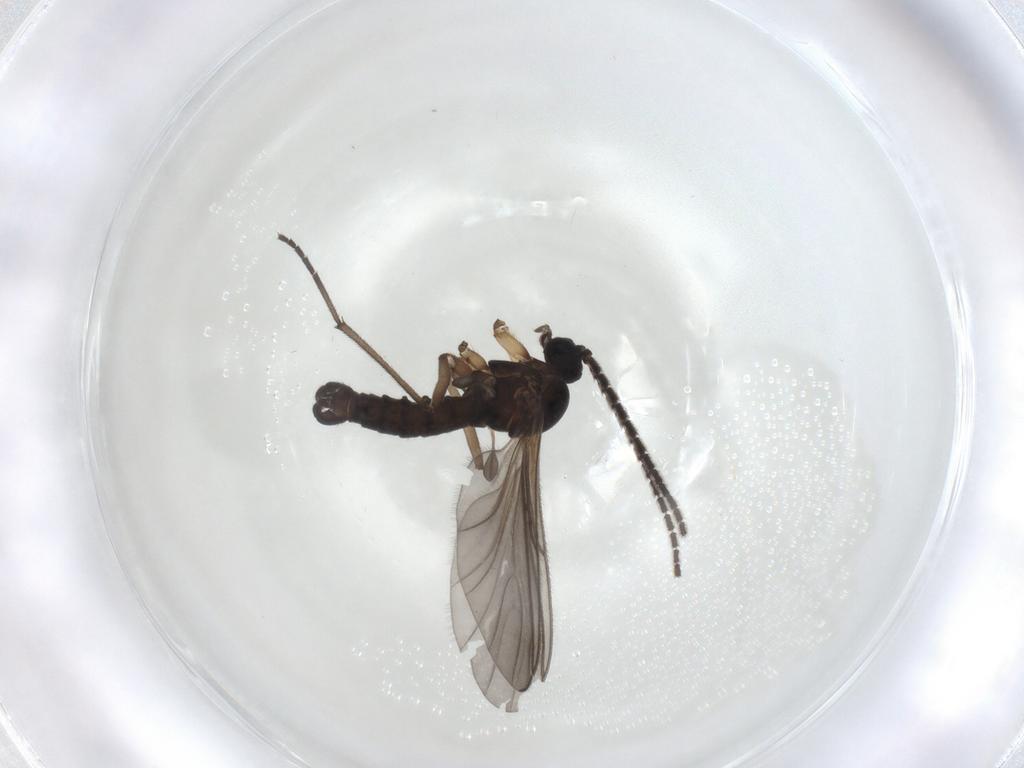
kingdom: Animalia
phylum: Arthropoda
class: Insecta
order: Diptera
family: Sciaridae
